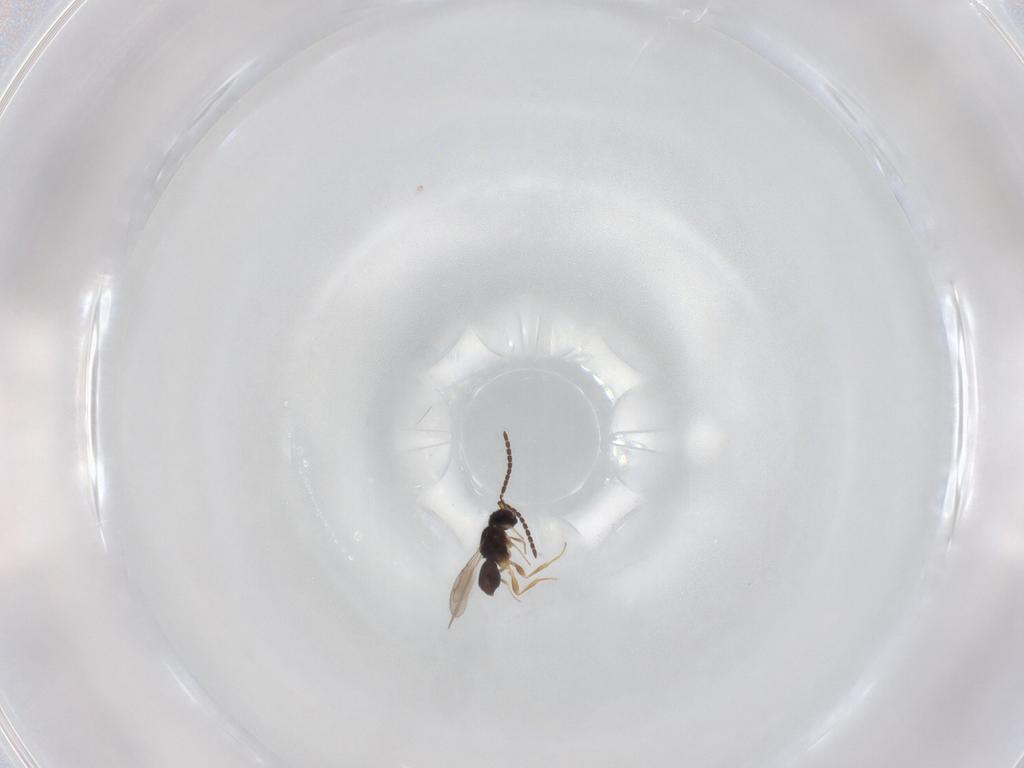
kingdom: Animalia
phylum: Arthropoda
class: Insecta
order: Hymenoptera
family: Ceraphronidae
